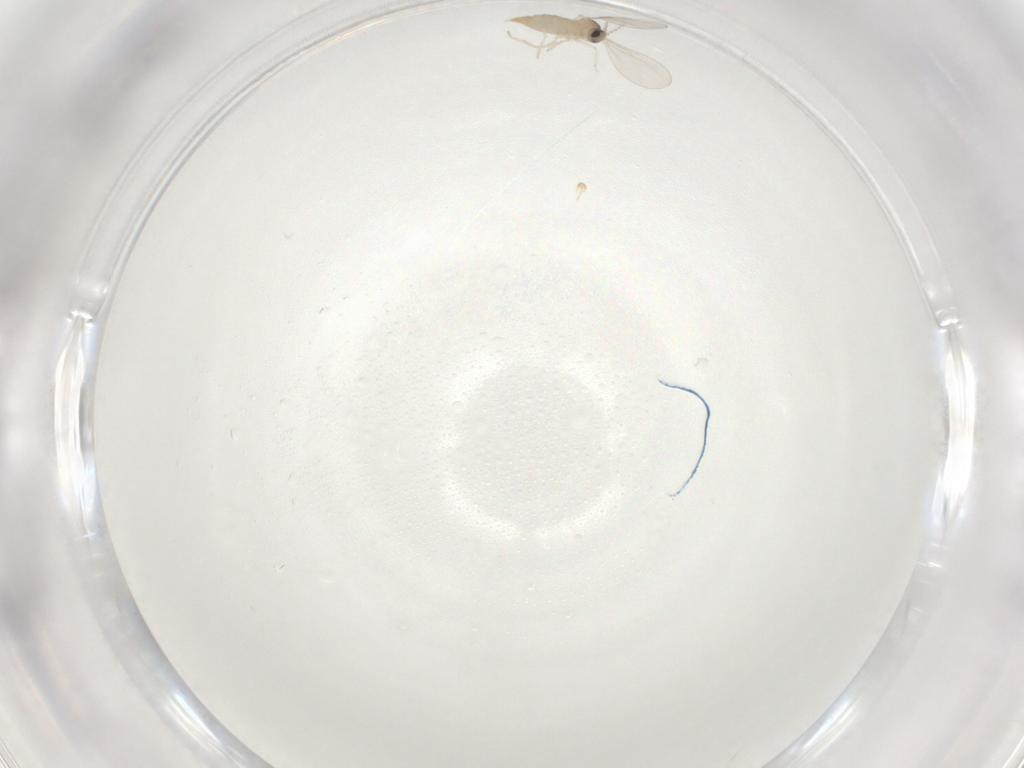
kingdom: Animalia
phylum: Arthropoda
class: Insecta
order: Diptera
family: Cecidomyiidae
